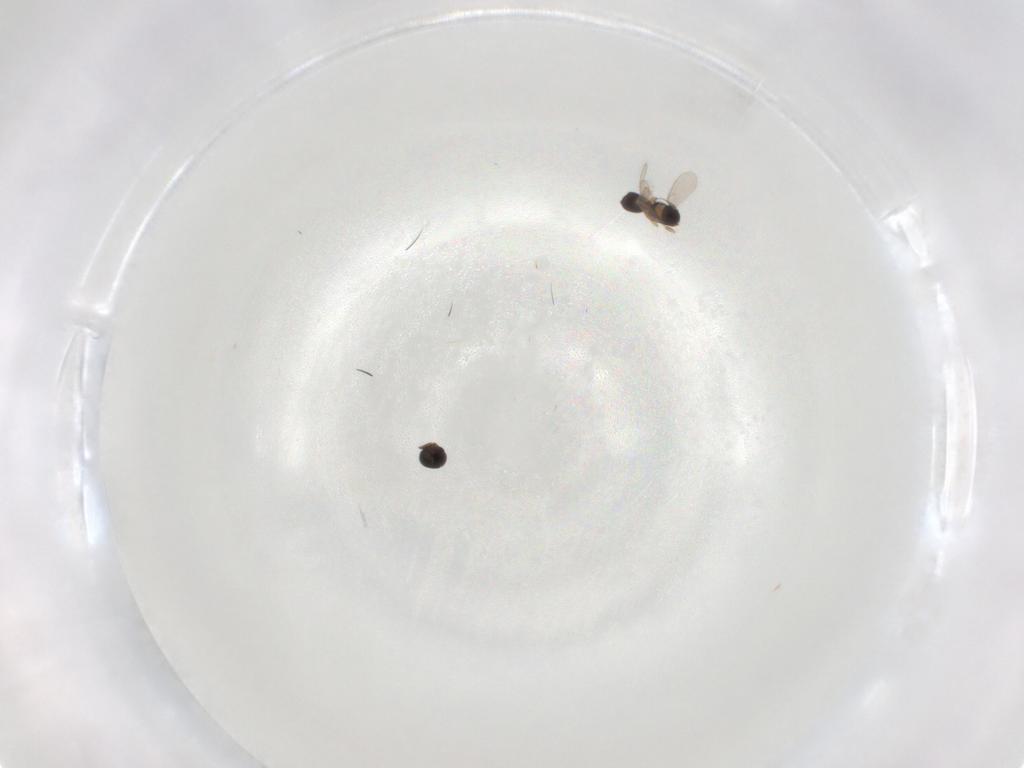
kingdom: Animalia
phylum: Arthropoda
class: Insecta
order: Hymenoptera
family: Scelionidae
